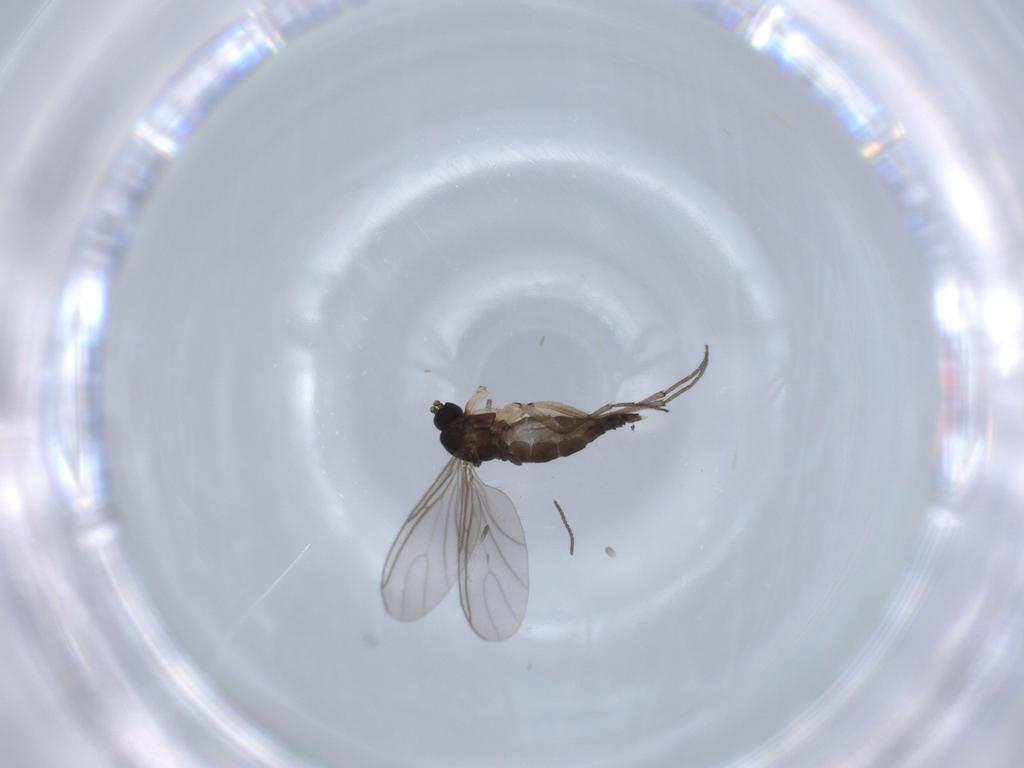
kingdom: Animalia
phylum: Arthropoda
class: Insecta
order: Diptera
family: Sciaridae
